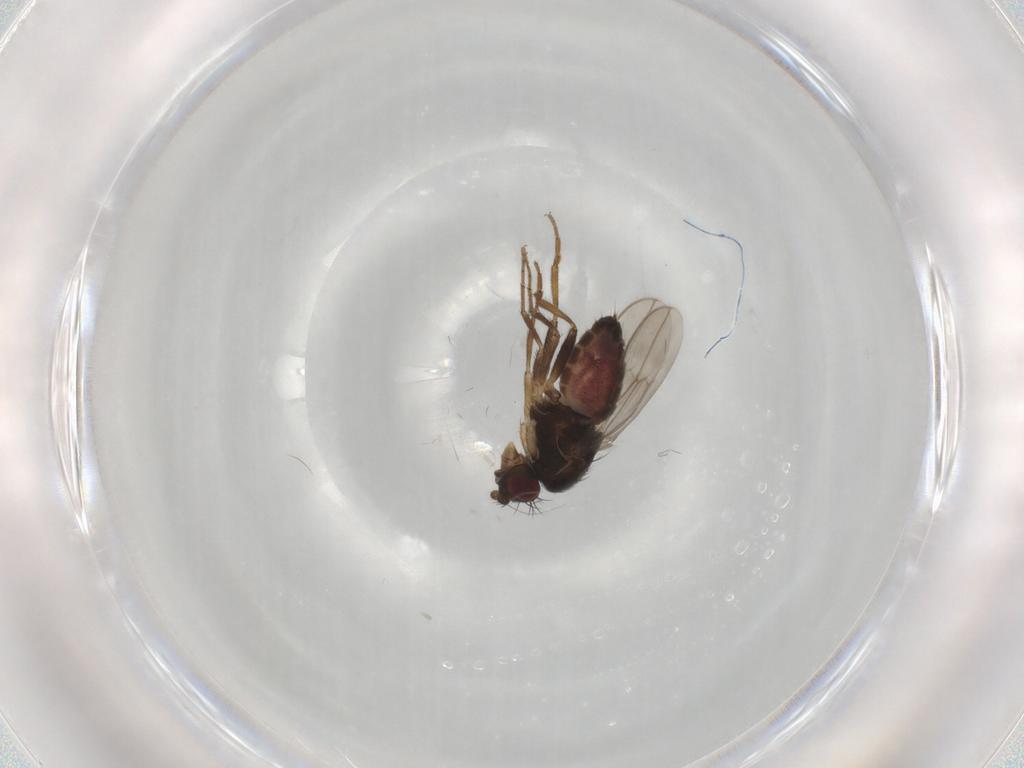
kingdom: Animalia
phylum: Arthropoda
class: Insecta
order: Diptera
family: Sphaeroceridae
